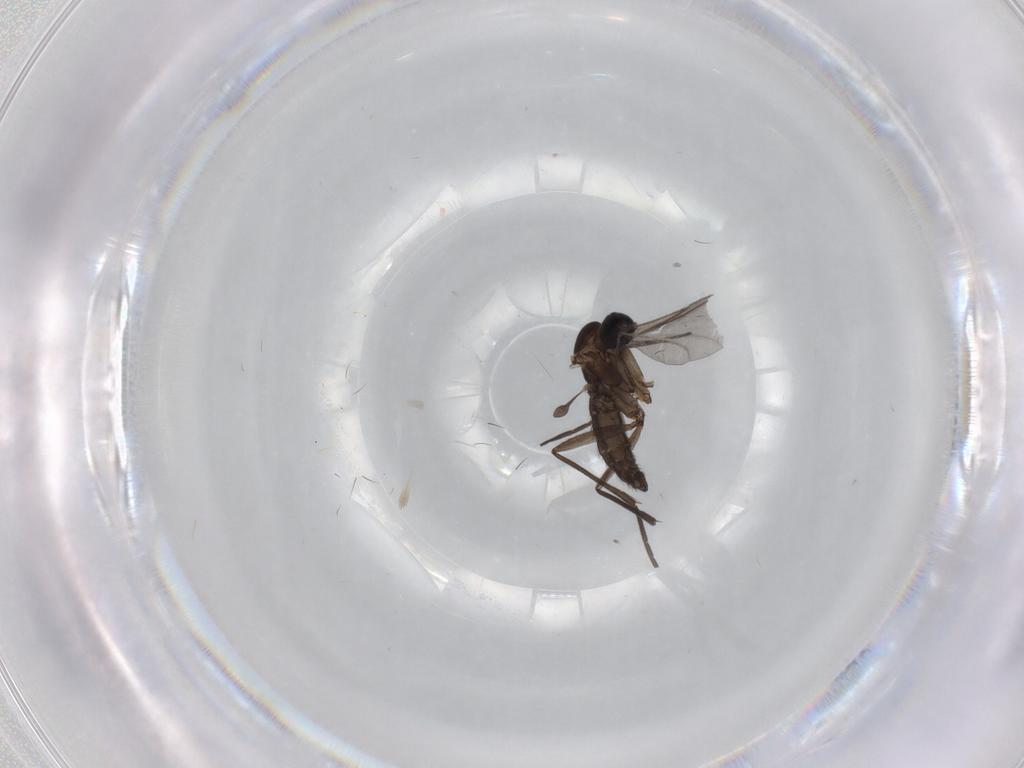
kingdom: Animalia
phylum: Arthropoda
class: Insecta
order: Diptera
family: Sciaridae
